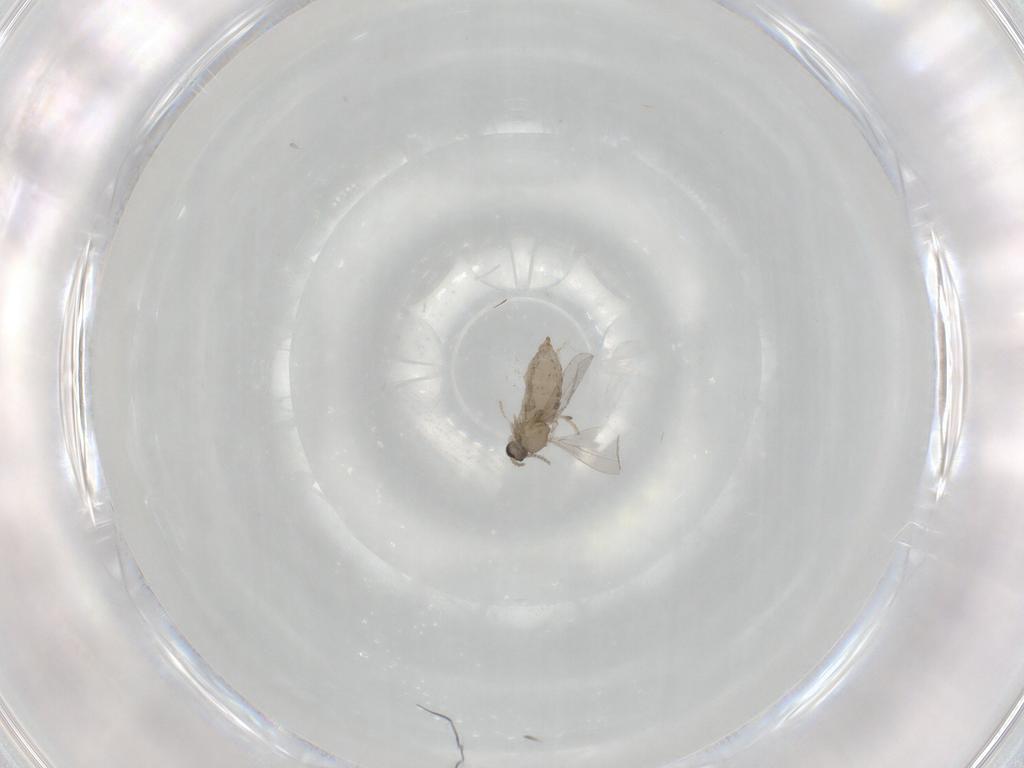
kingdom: Animalia
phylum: Arthropoda
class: Insecta
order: Diptera
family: Cecidomyiidae
